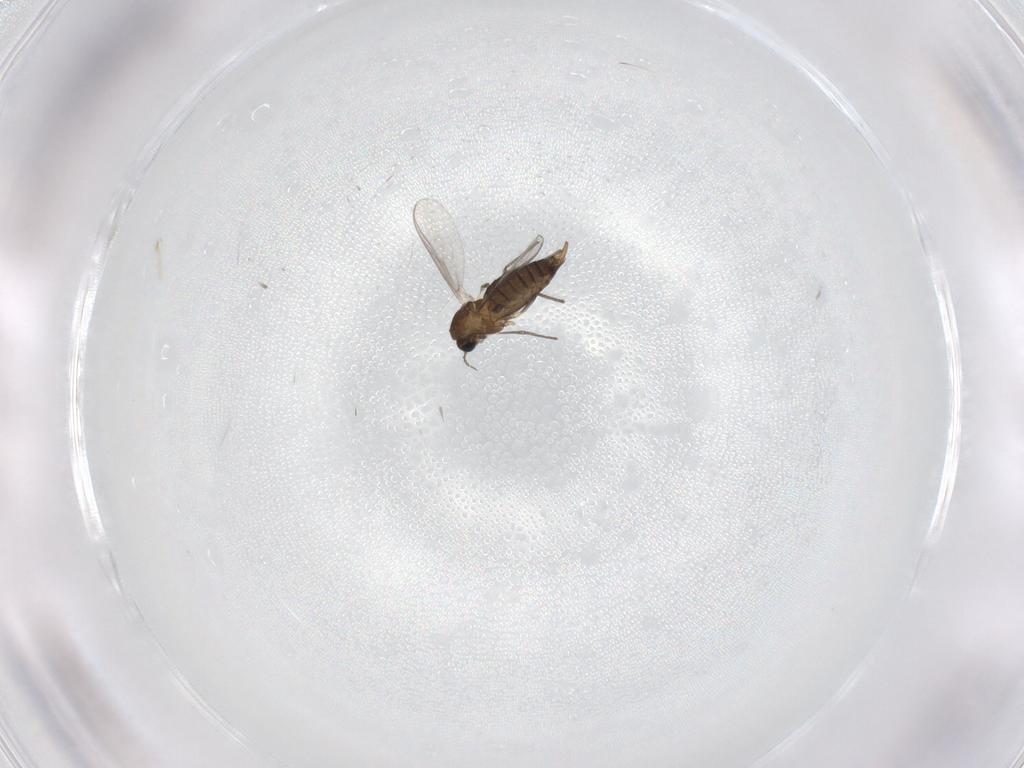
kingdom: Animalia
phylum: Arthropoda
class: Insecta
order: Diptera
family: Chironomidae
